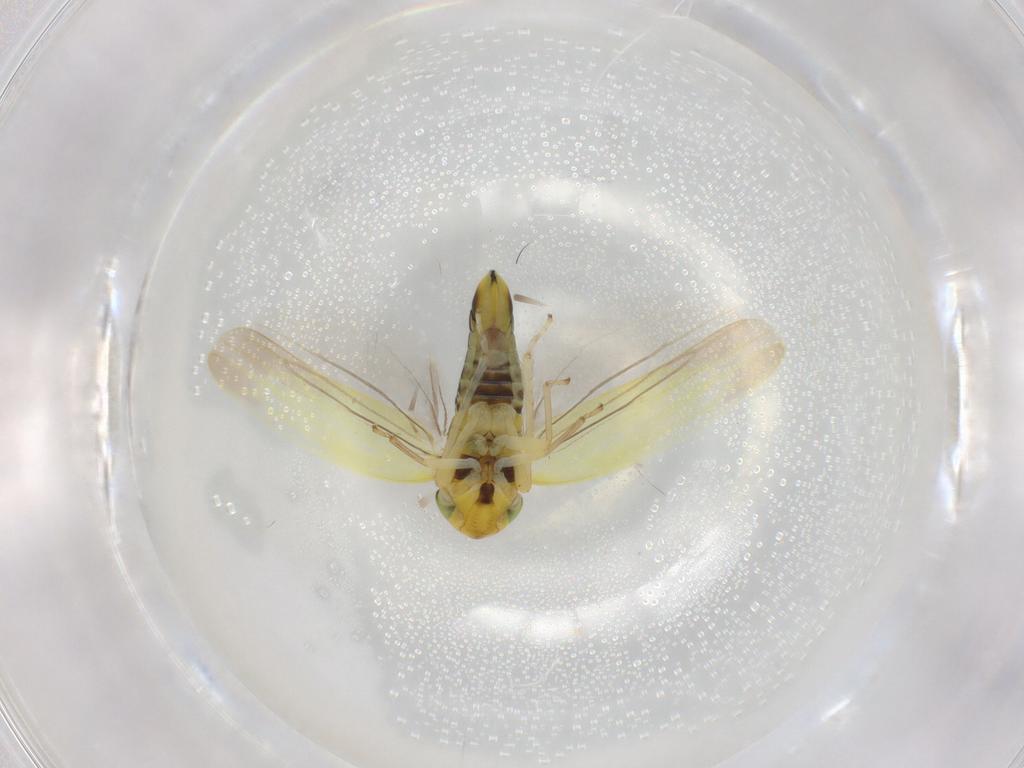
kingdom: Animalia
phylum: Arthropoda
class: Insecta
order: Hemiptera
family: Cicadellidae
